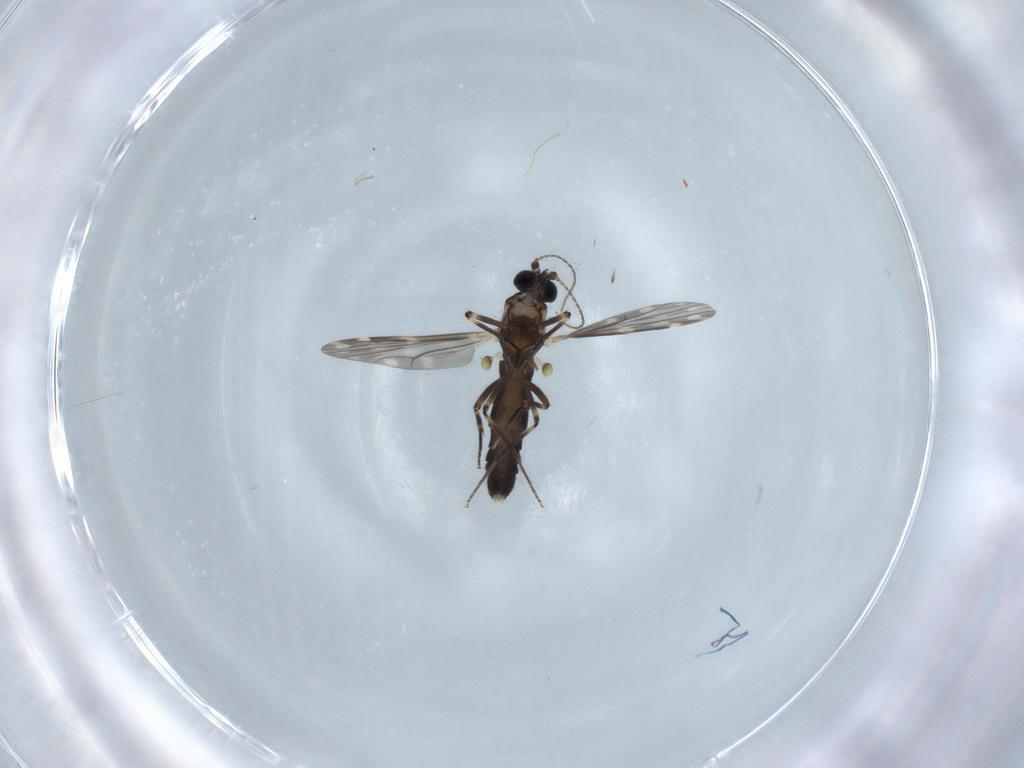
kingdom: Animalia
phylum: Arthropoda
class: Insecta
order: Diptera
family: Ceratopogonidae
